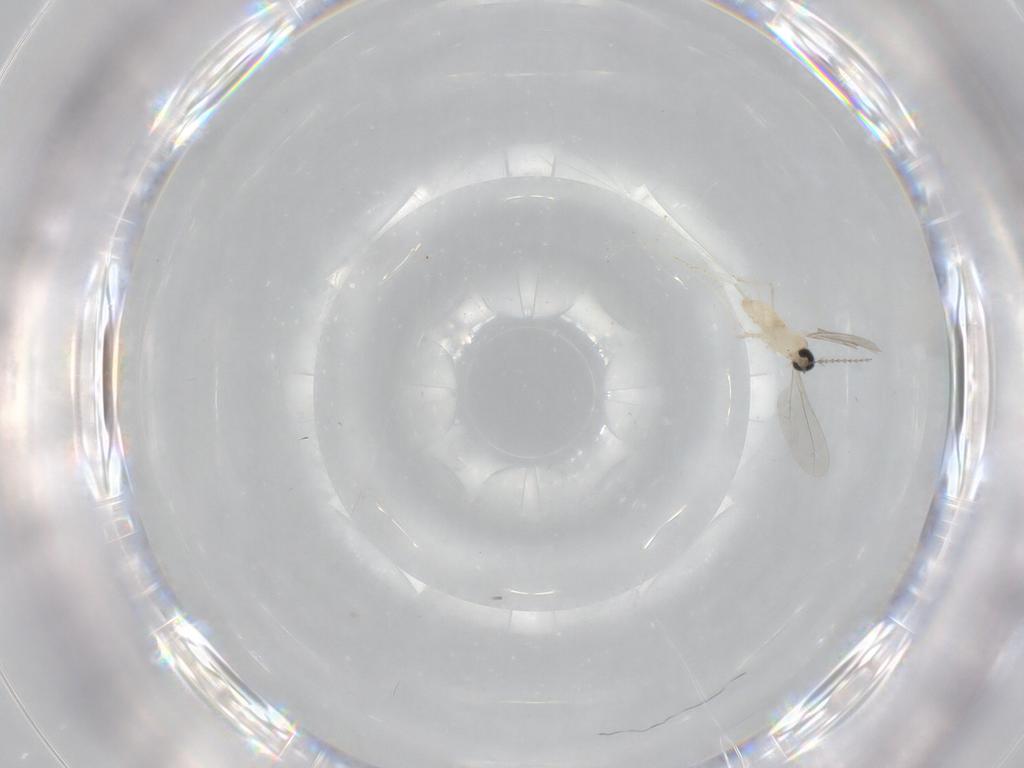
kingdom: Animalia
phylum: Arthropoda
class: Insecta
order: Diptera
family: Cecidomyiidae
